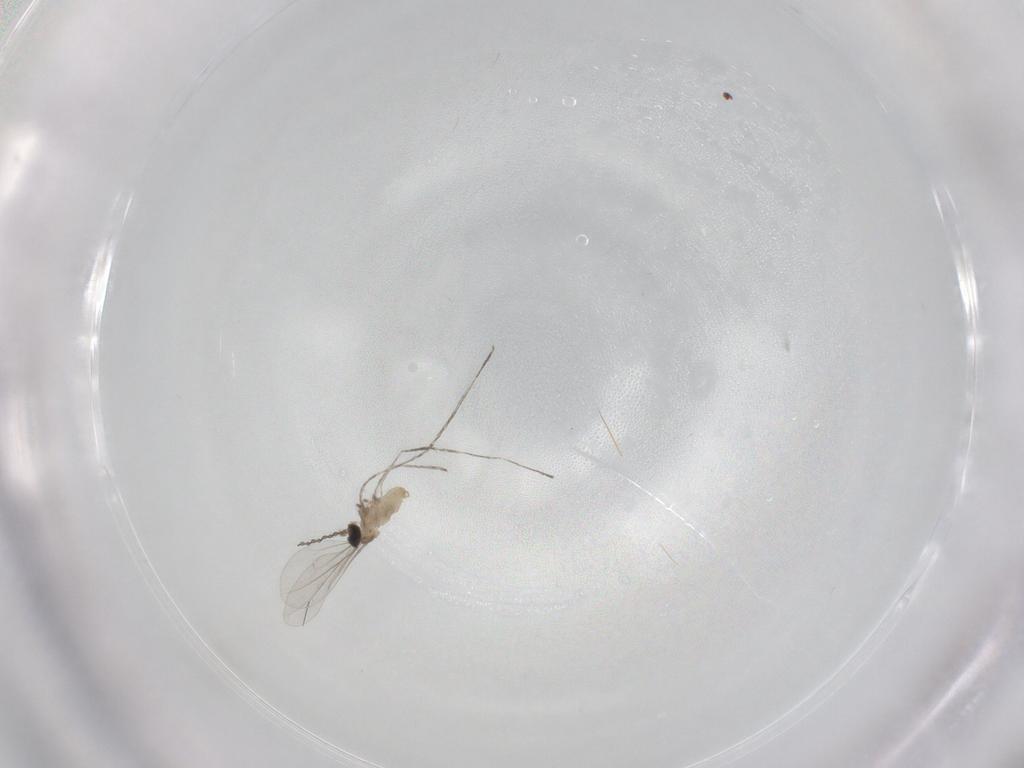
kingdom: Animalia
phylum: Arthropoda
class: Insecta
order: Diptera
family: Cecidomyiidae
